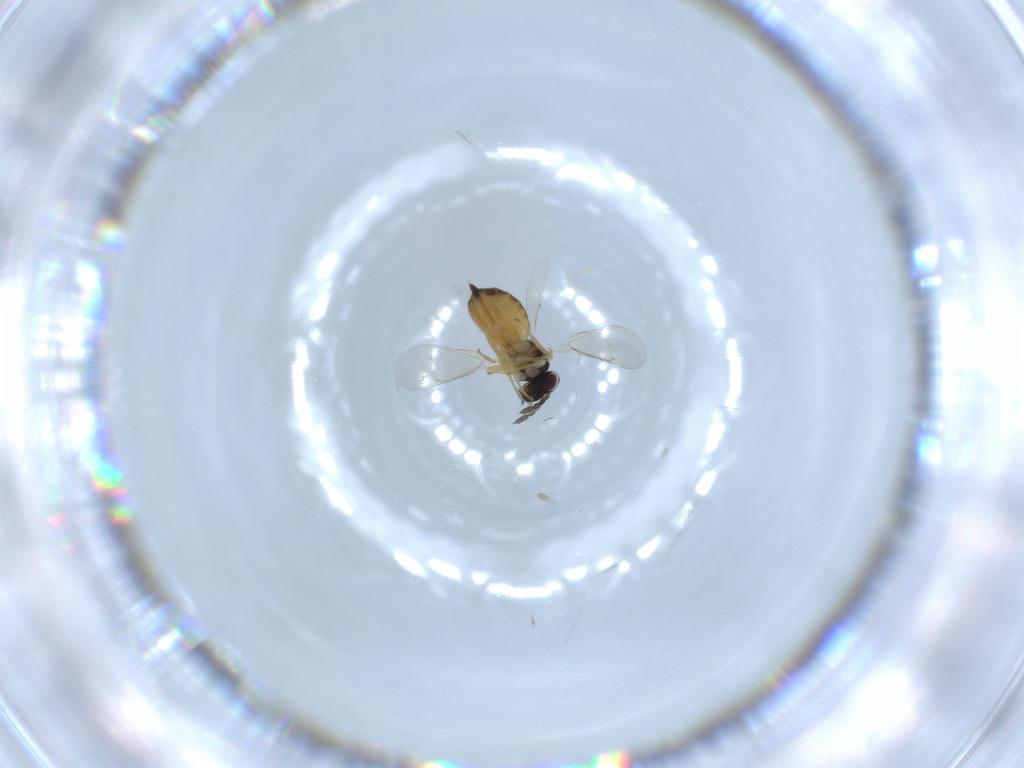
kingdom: Animalia
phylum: Arthropoda
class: Insecta
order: Hymenoptera
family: Eulophidae
